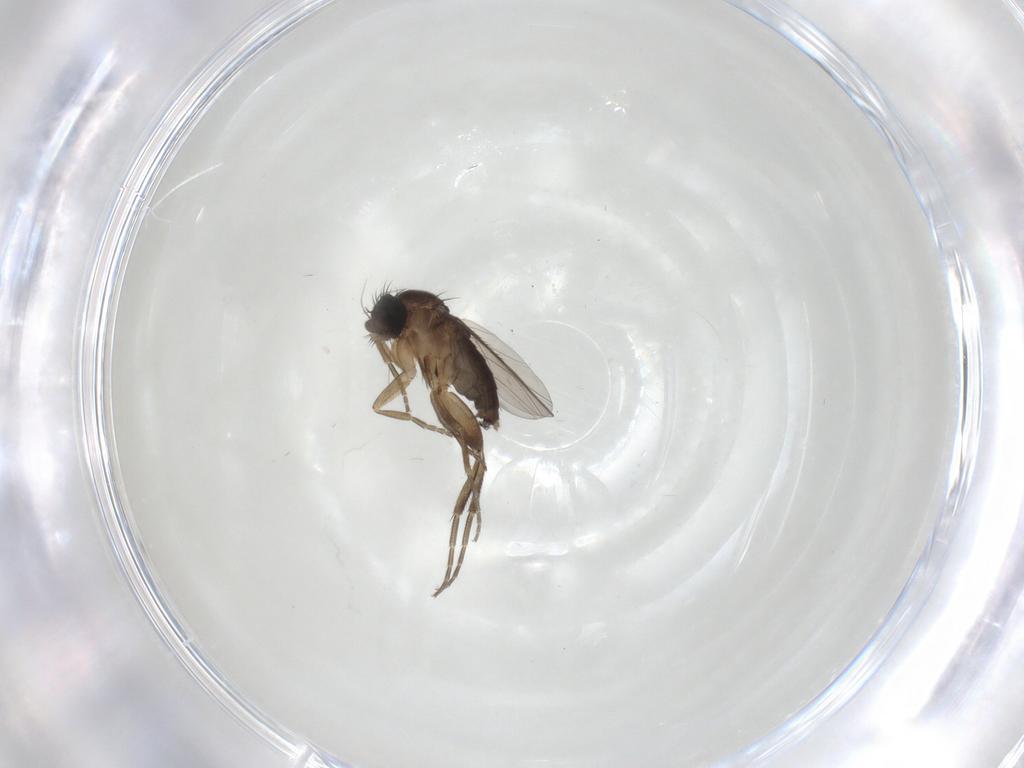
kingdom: Animalia
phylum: Arthropoda
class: Insecta
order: Diptera
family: Phoridae
